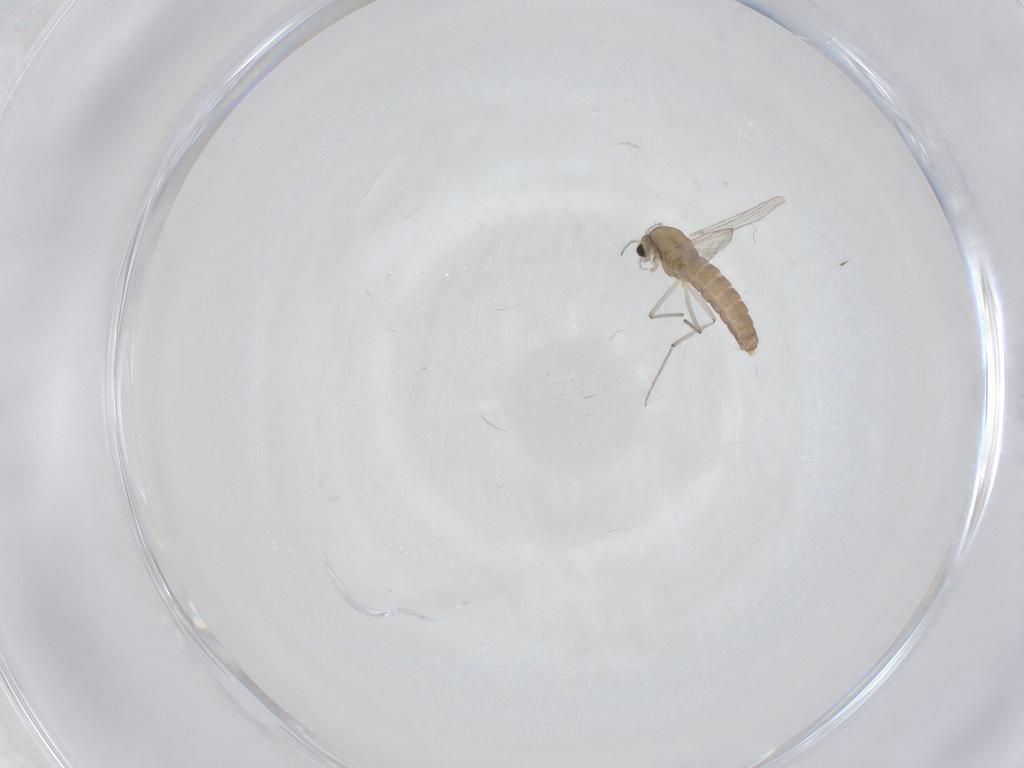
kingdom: Animalia
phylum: Arthropoda
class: Insecta
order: Diptera
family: Chironomidae
